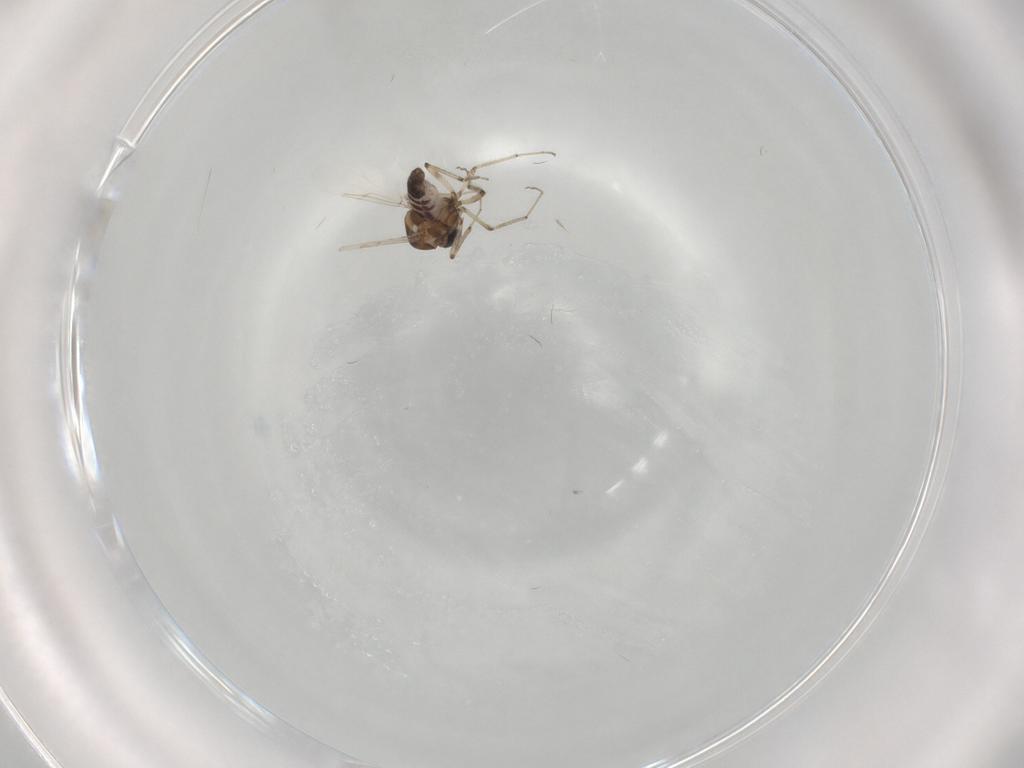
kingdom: Animalia
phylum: Arthropoda
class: Insecta
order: Diptera
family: Ceratopogonidae
